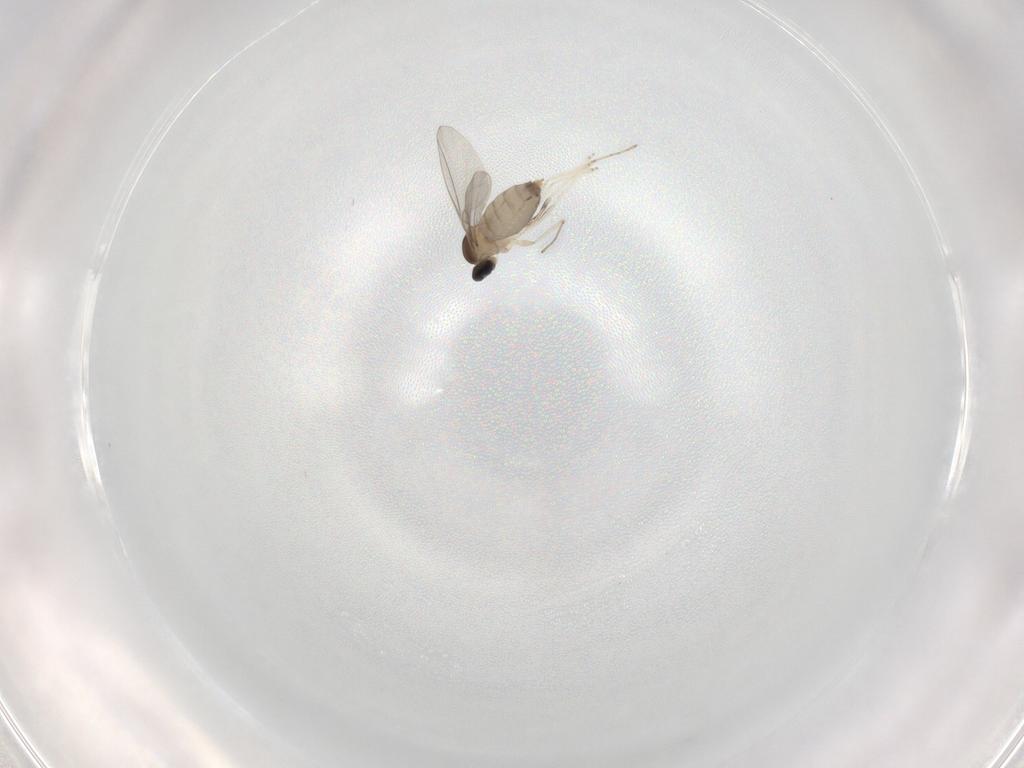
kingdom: Animalia
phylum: Arthropoda
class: Insecta
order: Diptera
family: Cecidomyiidae
